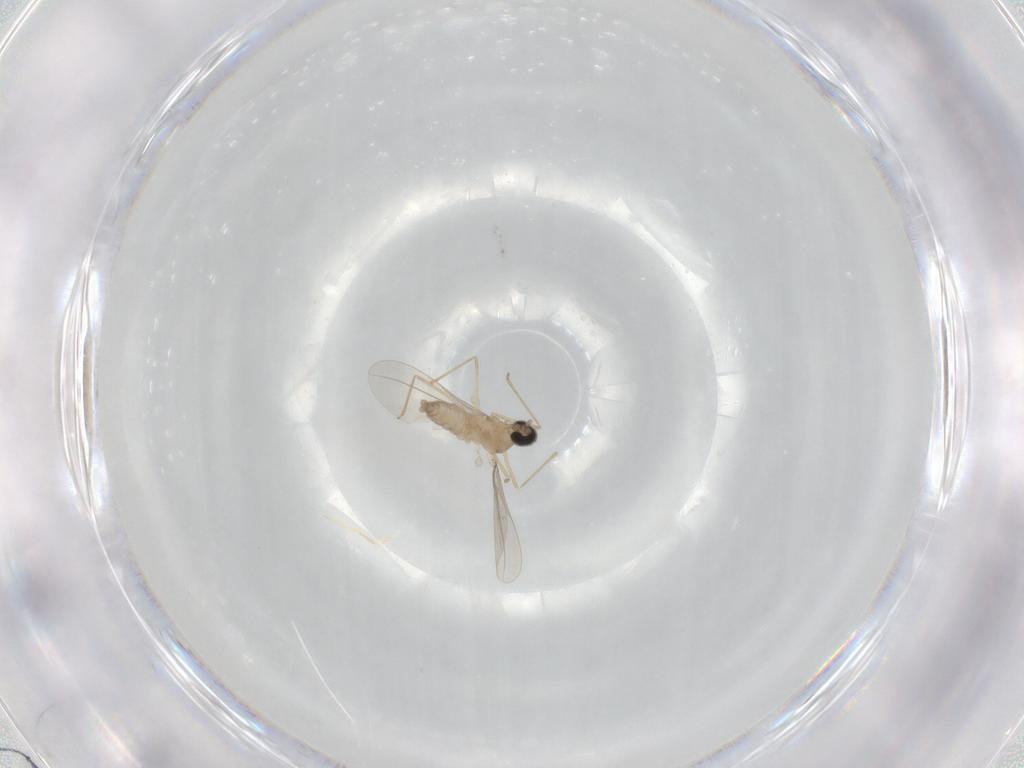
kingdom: Animalia
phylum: Arthropoda
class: Insecta
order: Diptera
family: Cecidomyiidae
